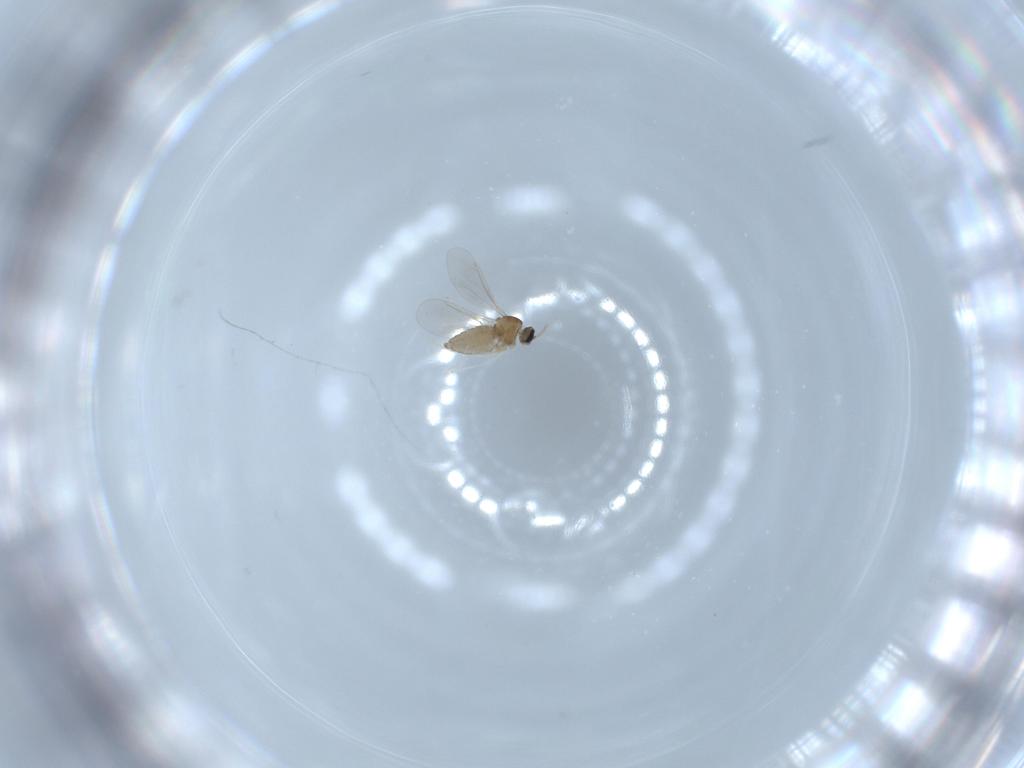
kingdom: Animalia
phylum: Arthropoda
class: Insecta
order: Diptera
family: Cecidomyiidae
